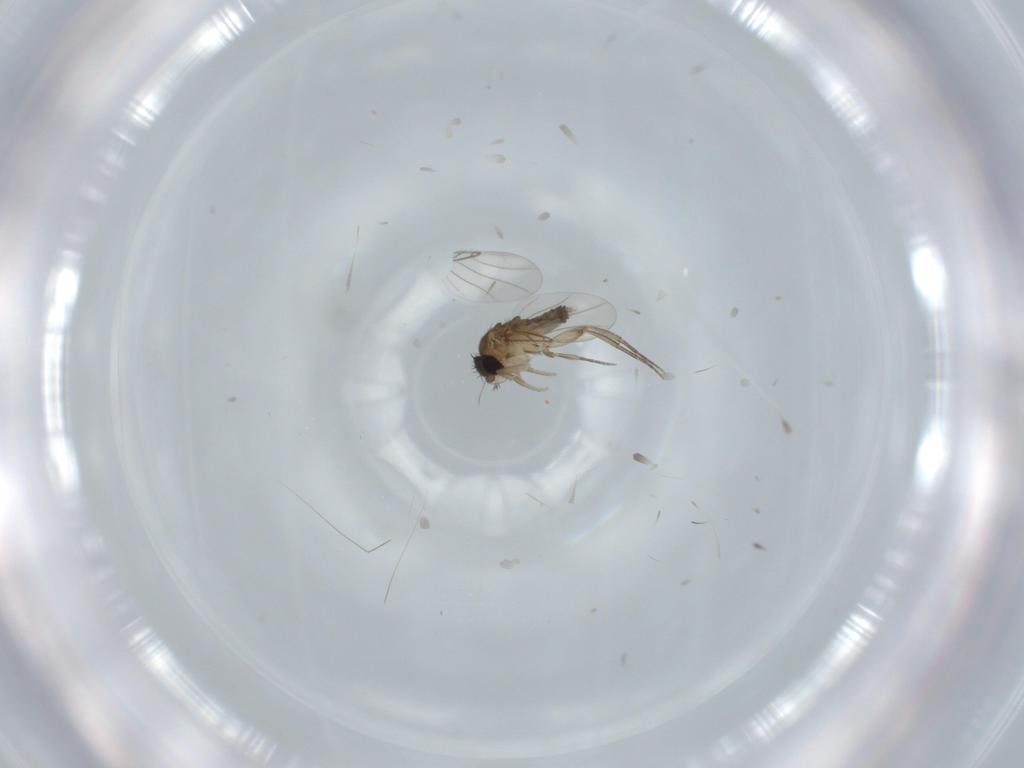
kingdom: Animalia
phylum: Arthropoda
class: Insecta
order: Diptera
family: Phoridae
